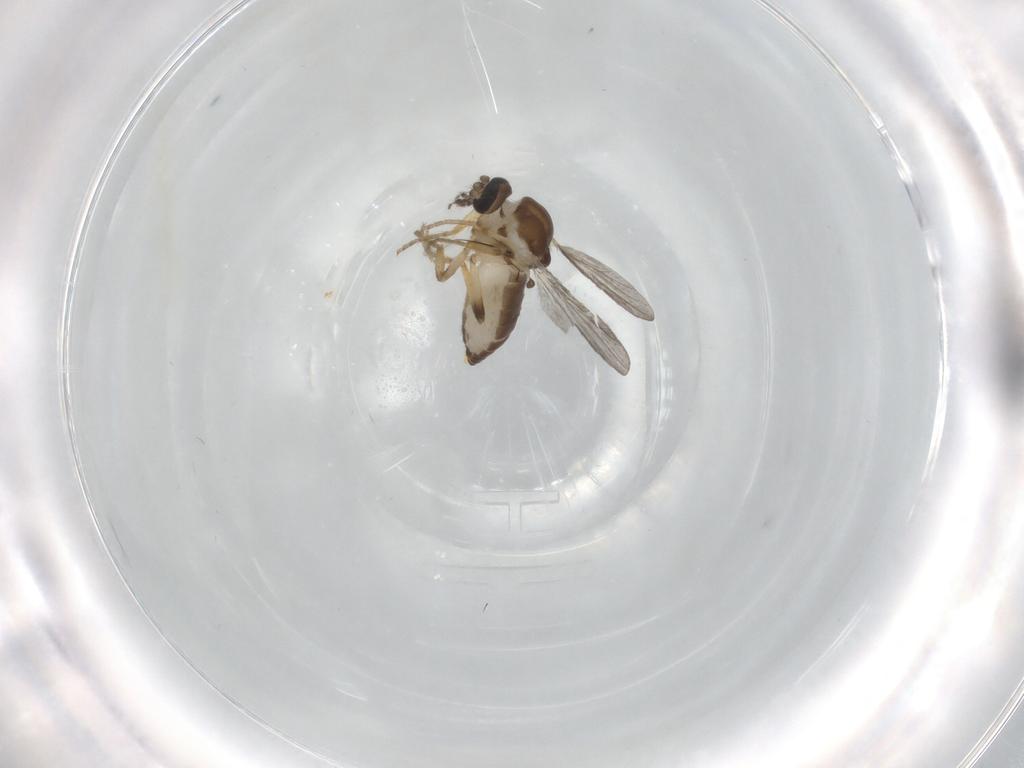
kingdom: Animalia
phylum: Arthropoda
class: Insecta
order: Diptera
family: Ceratopogonidae
